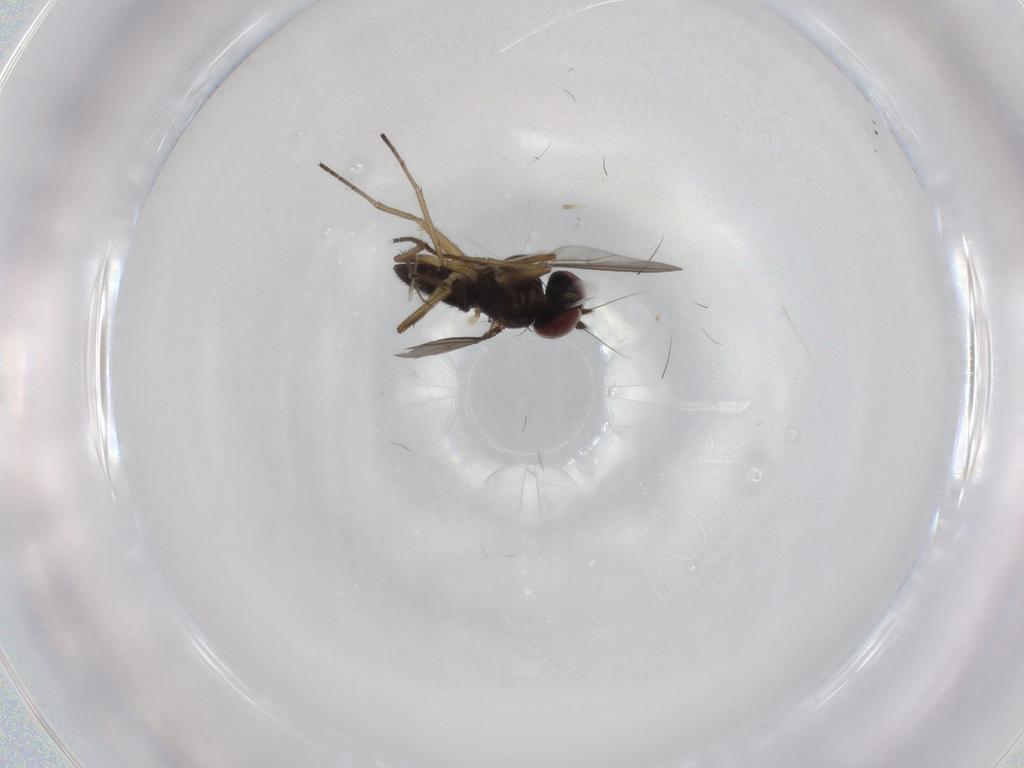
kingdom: Animalia
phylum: Arthropoda
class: Insecta
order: Diptera
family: Dolichopodidae
